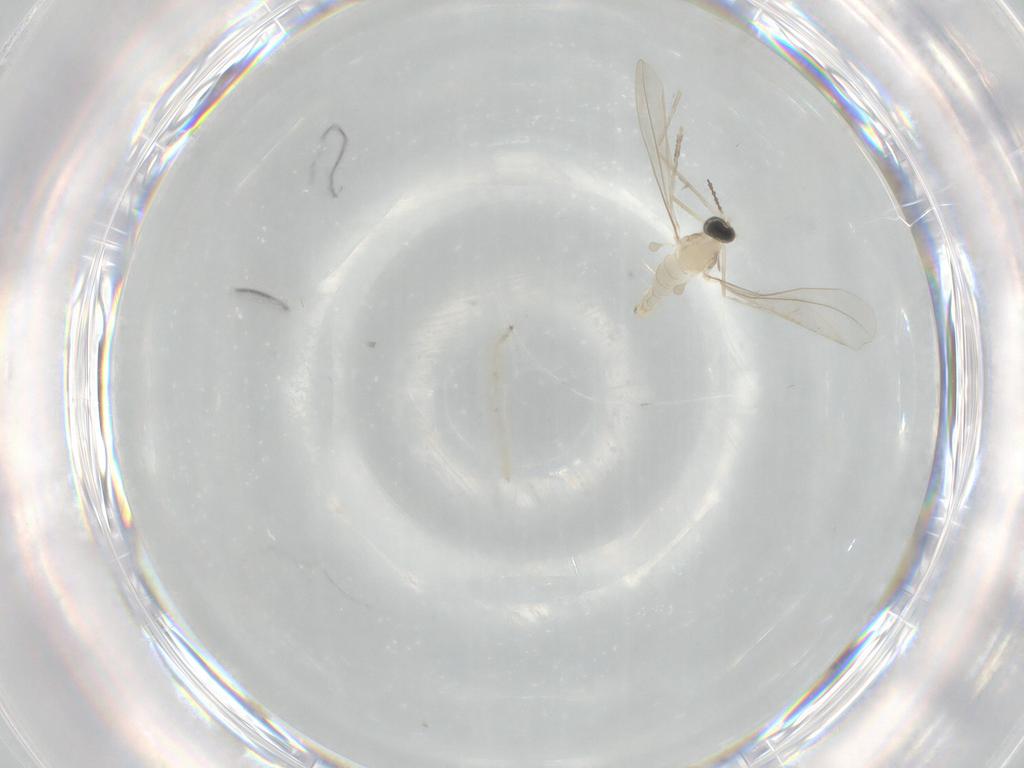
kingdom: Animalia
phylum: Arthropoda
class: Insecta
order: Diptera
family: Cecidomyiidae
